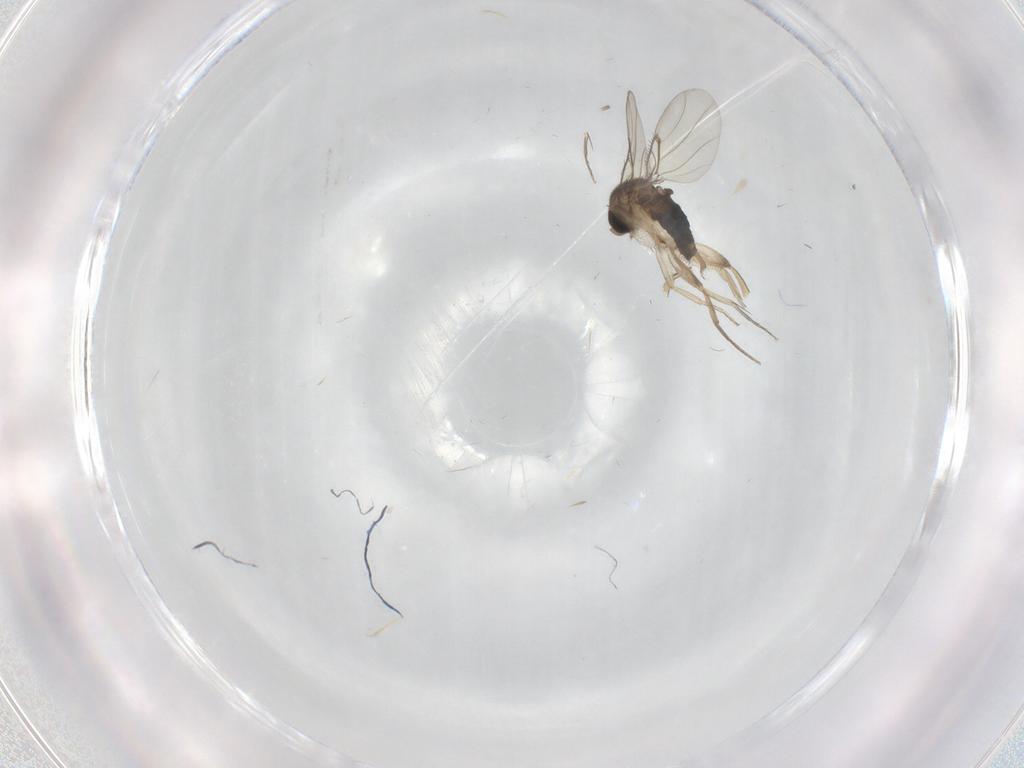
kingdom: Animalia
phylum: Arthropoda
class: Insecta
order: Diptera
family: Phoridae
